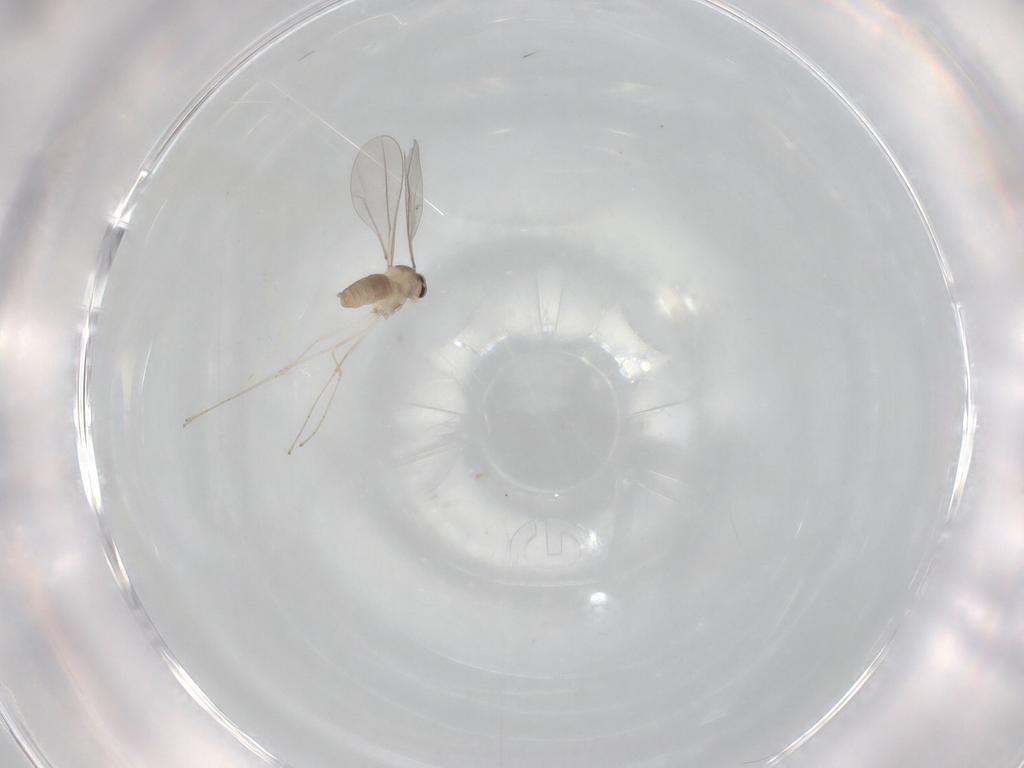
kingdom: Animalia
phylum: Arthropoda
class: Insecta
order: Diptera
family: Cecidomyiidae
